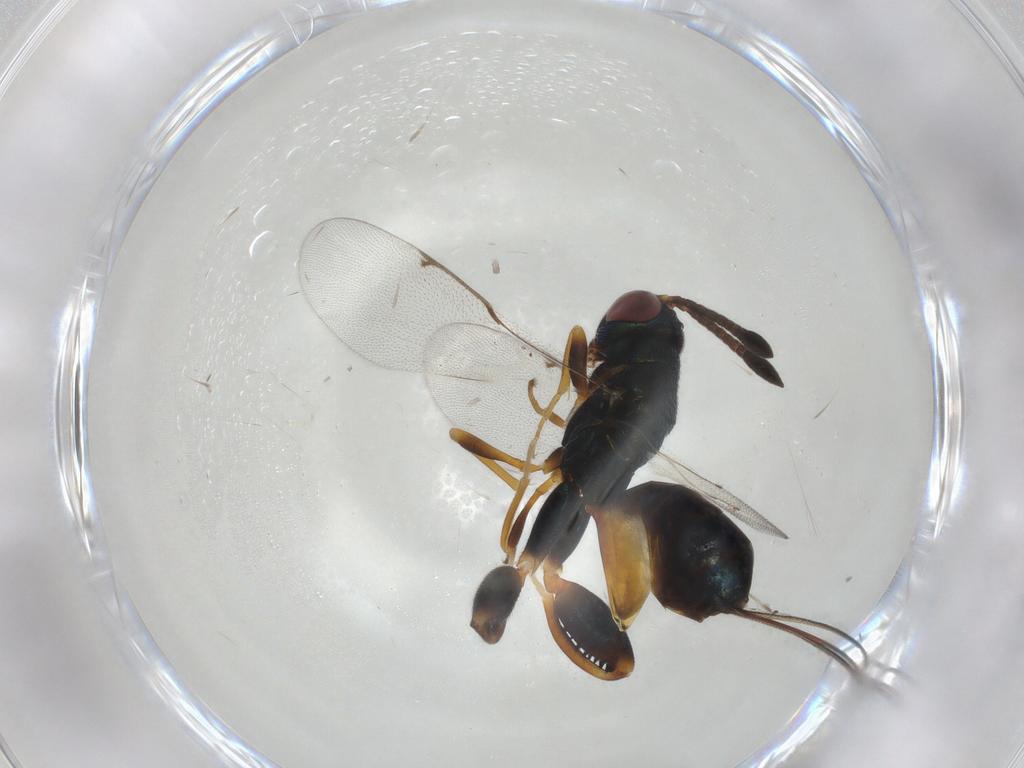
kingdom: Animalia
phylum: Arthropoda
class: Insecta
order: Hymenoptera
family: Torymidae
